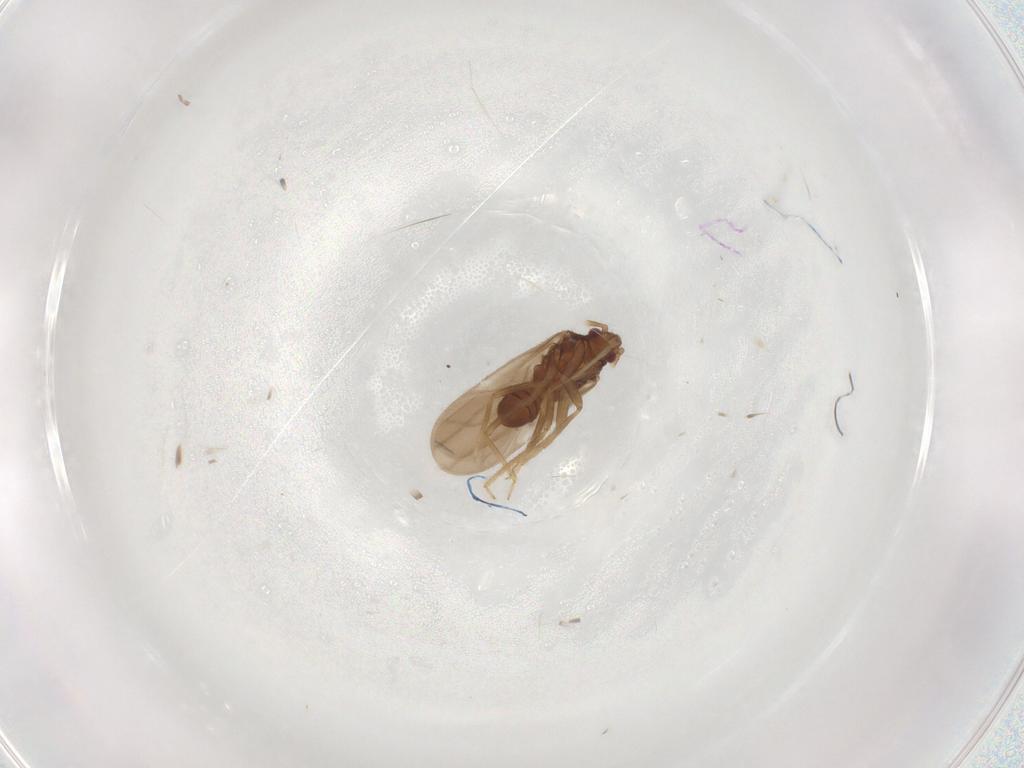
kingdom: Animalia
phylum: Arthropoda
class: Insecta
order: Hemiptera
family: Ceratocombidae
